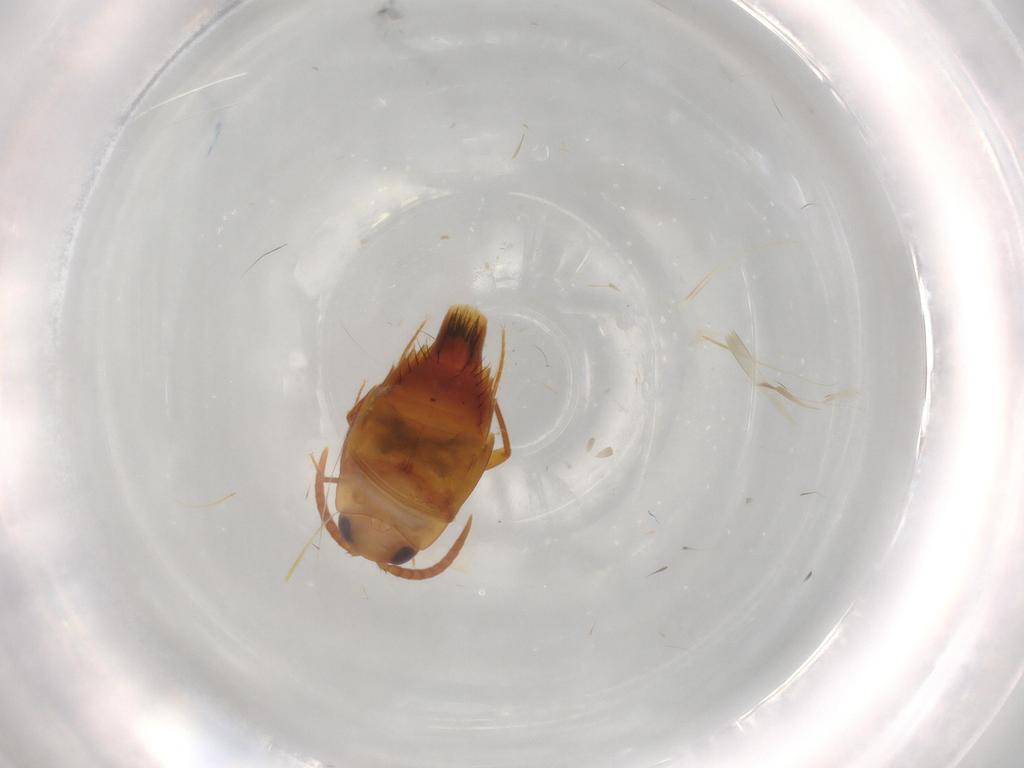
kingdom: Animalia
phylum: Arthropoda
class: Insecta
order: Coleoptera
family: Staphylinidae
